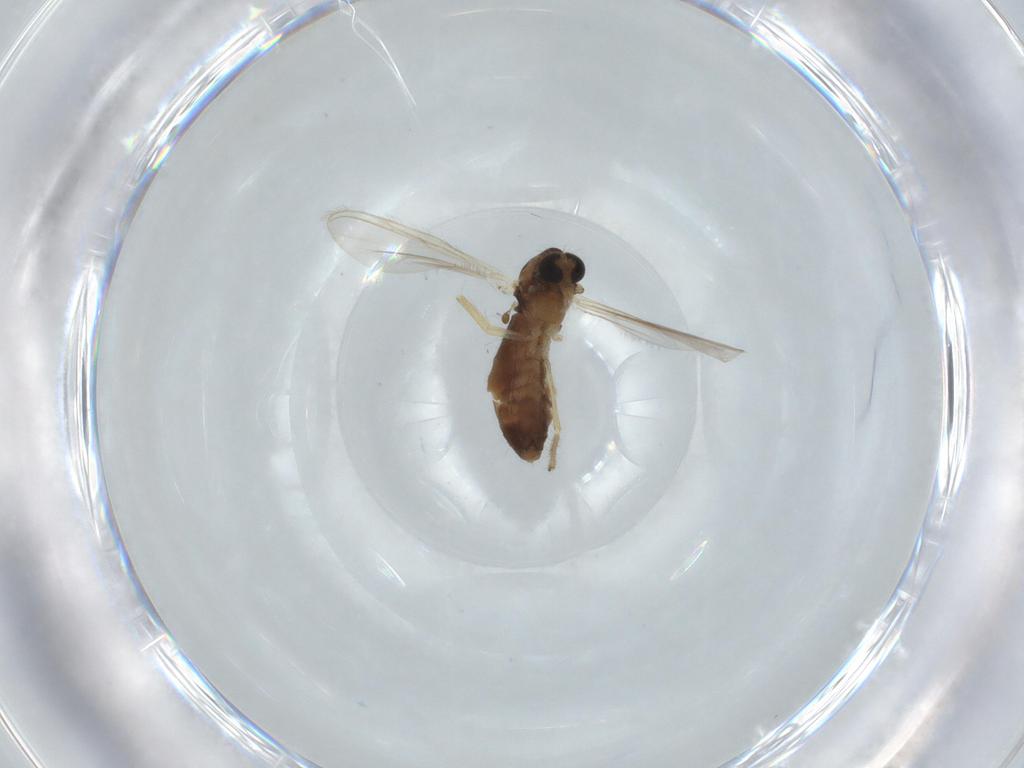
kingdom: Animalia
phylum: Arthropoda
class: Insecta
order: Diptera
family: Chironomidae
